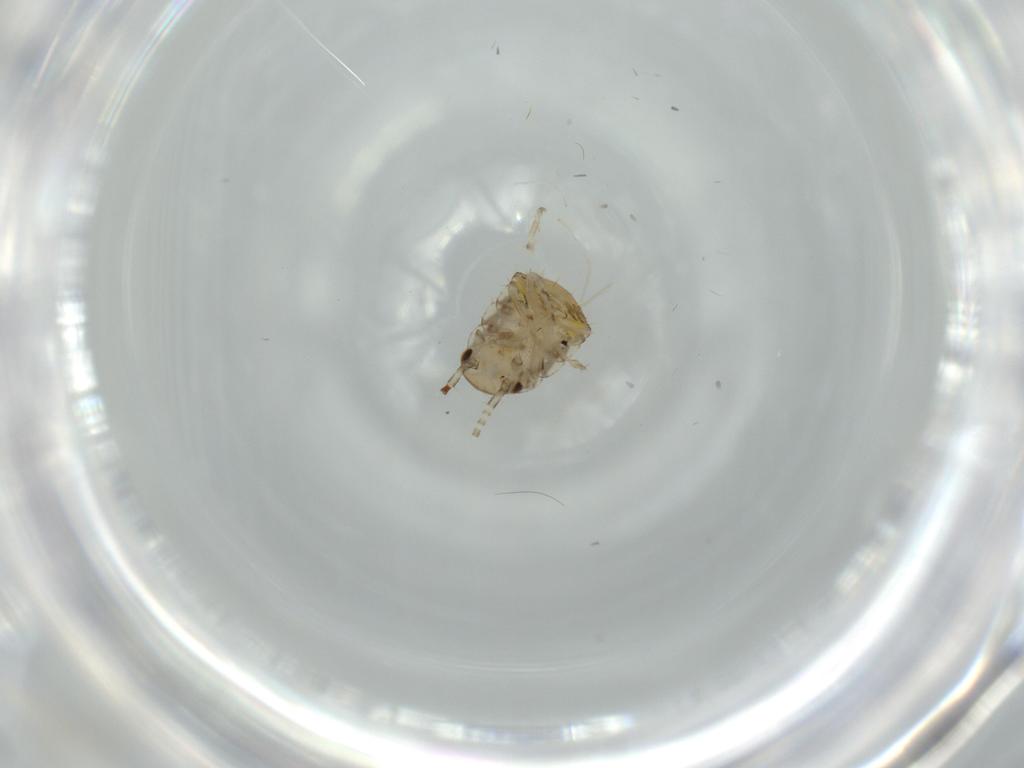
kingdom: Animalia
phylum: Arthropoda
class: Insecta
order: Blattodea
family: Ectobiidae
